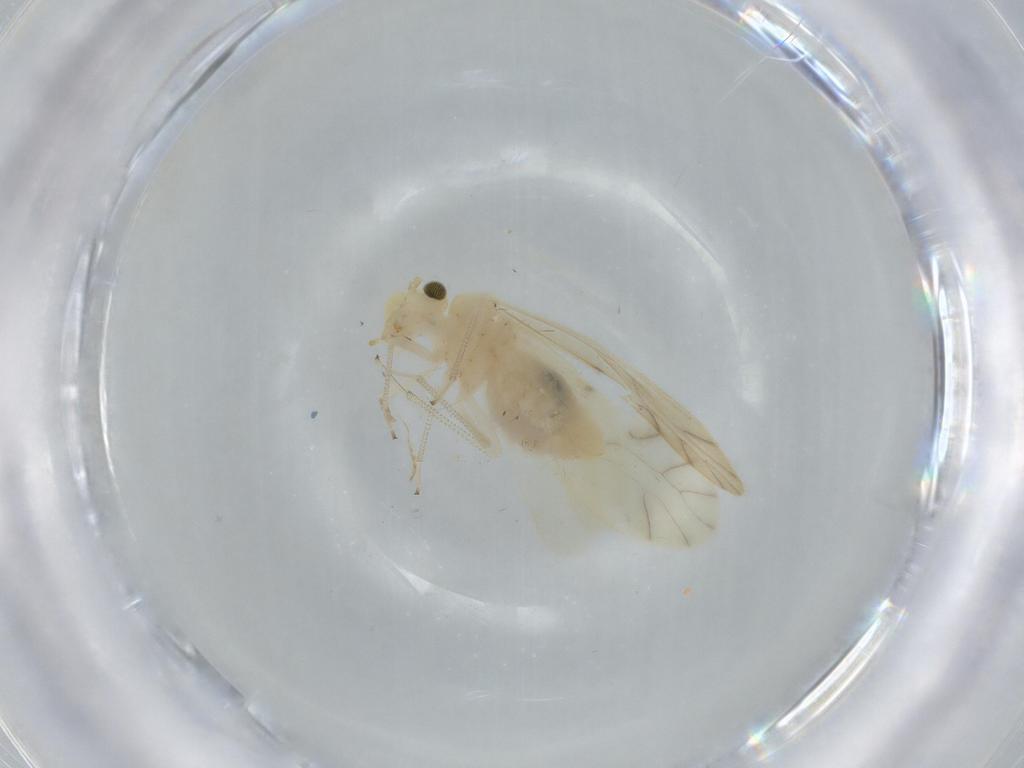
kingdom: Animalia
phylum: Arthropoda
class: Insecta
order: Psocodea
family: Caeciliusidae
